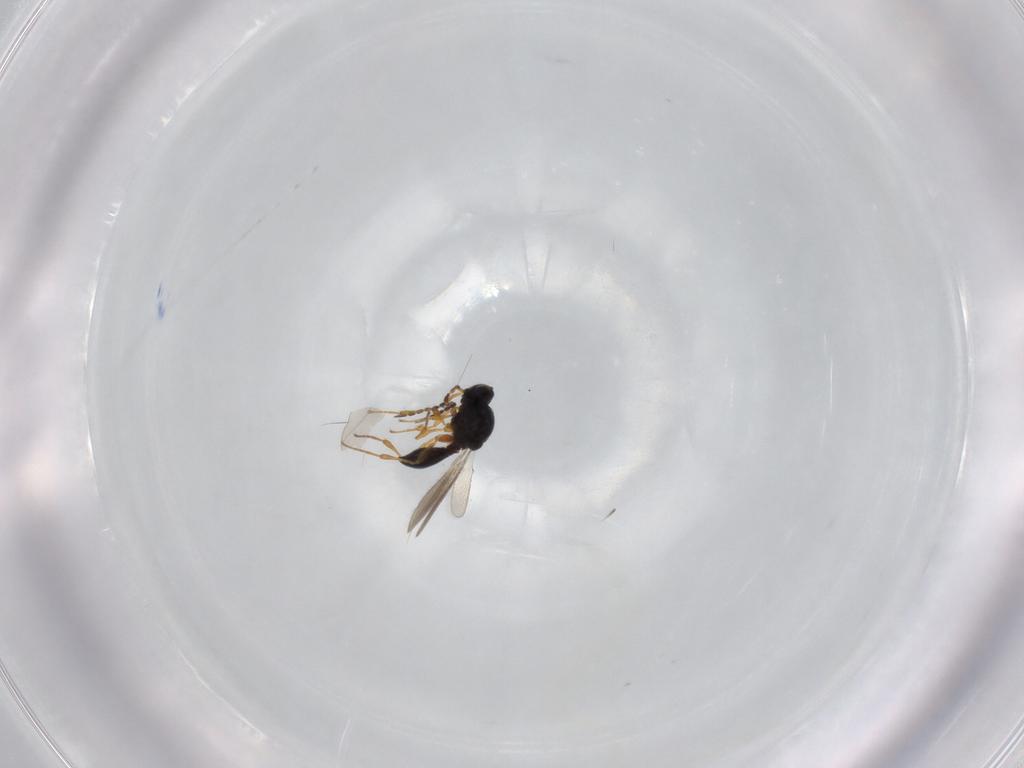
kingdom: Animalia
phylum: Arthropoda
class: Insecta
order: Hymenoptera
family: Platygastridae
